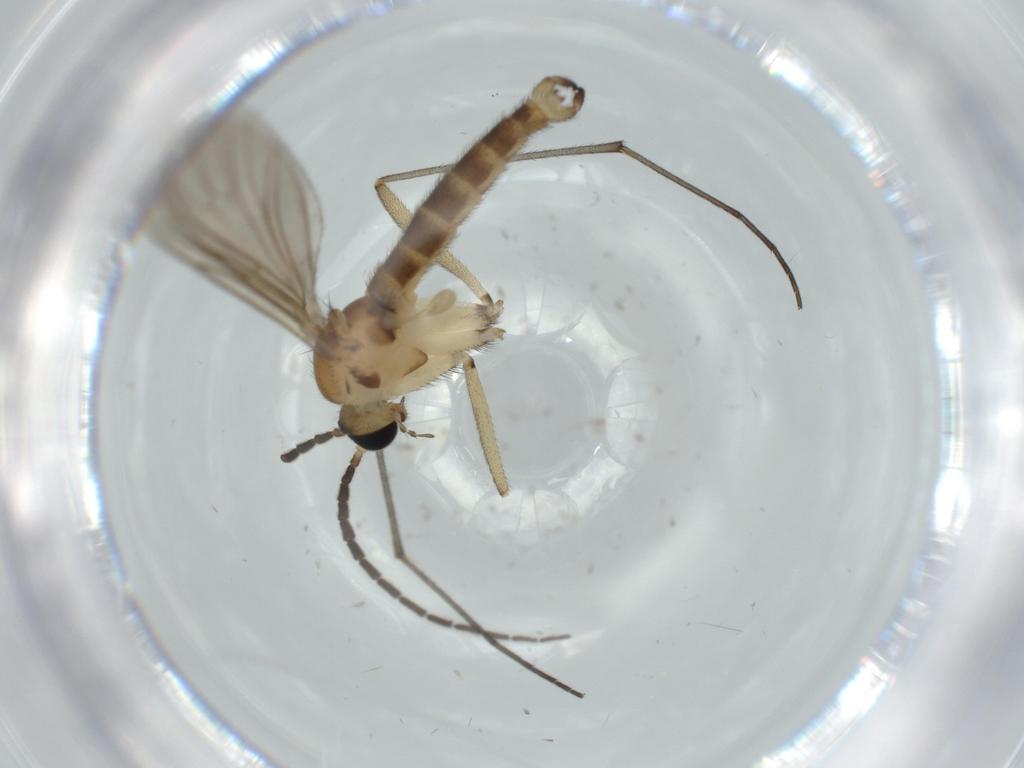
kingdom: Animalia
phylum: Arthropoda
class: Insecta
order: Diptera
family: Sciaridae
